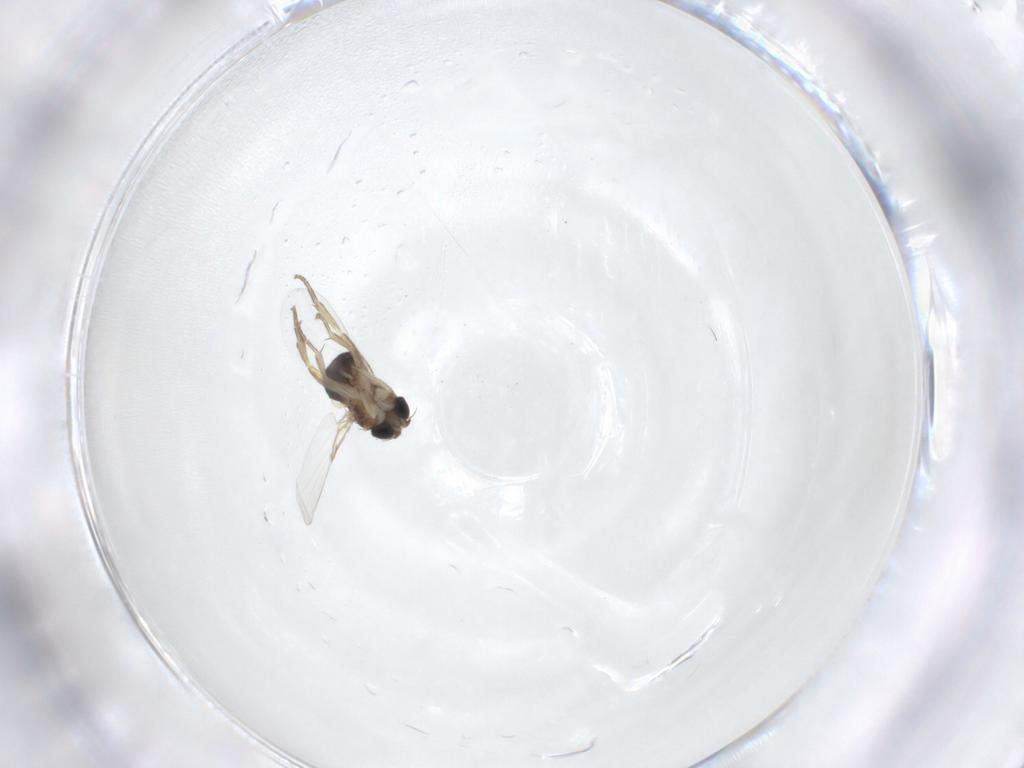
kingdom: Animalia
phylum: Arthropoda
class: Insecta
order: Diptera
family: Phoridae
